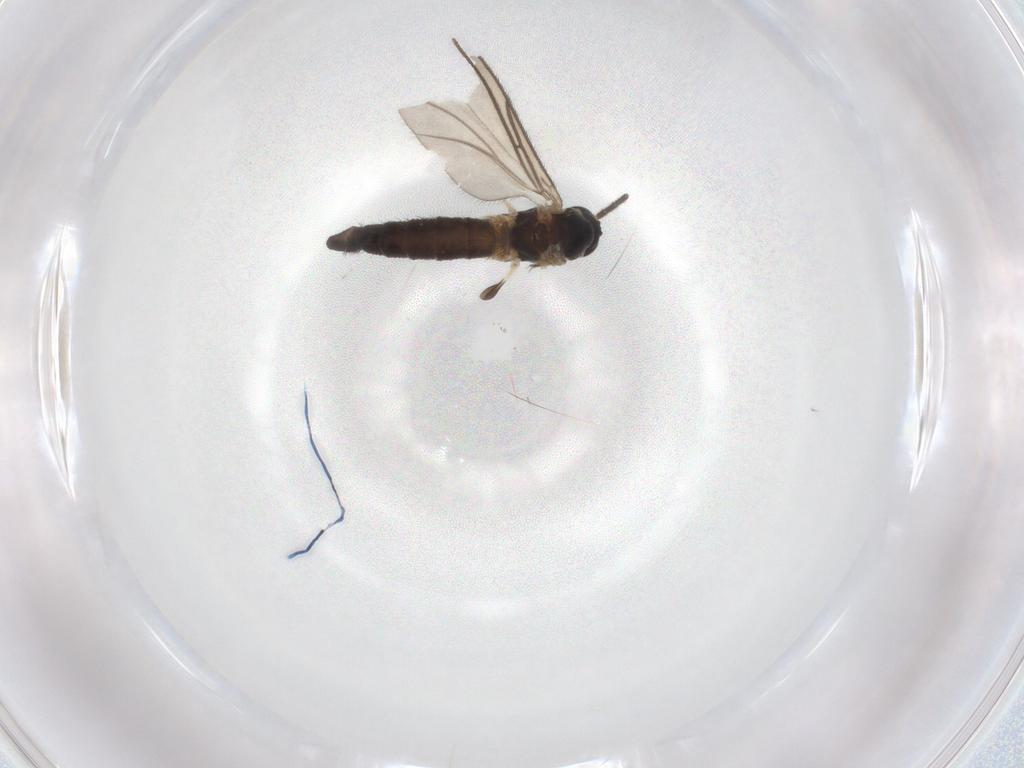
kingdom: Animalia
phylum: Arthropoda
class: Insecta
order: Diptera
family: Sciaridae
